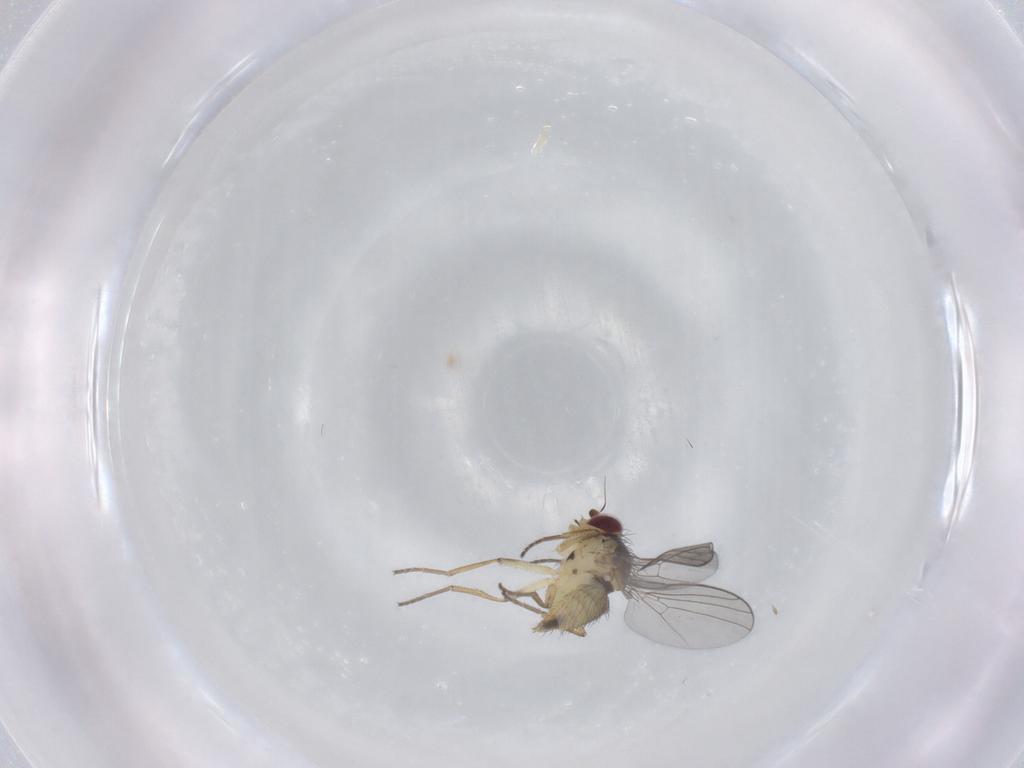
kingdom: Animalia
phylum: Arthropoda
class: Insecta
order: Diptera
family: Agromyzidae
